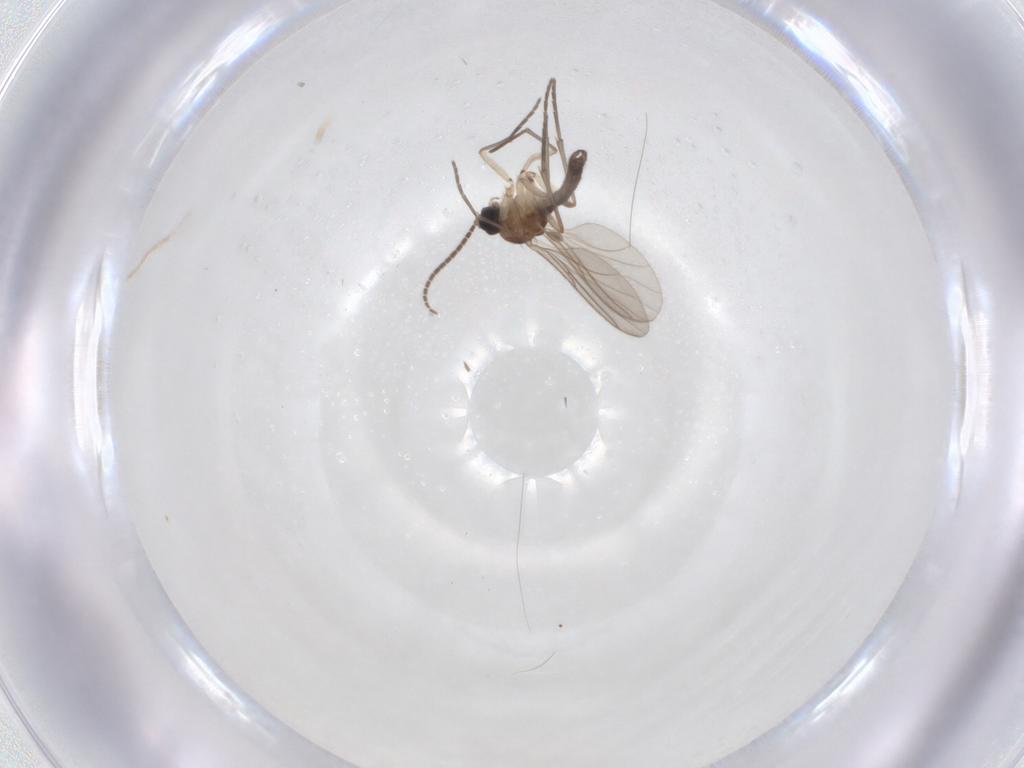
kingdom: Animalia
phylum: Arthropoda
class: Insecta
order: Diptera
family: Sciaridae
